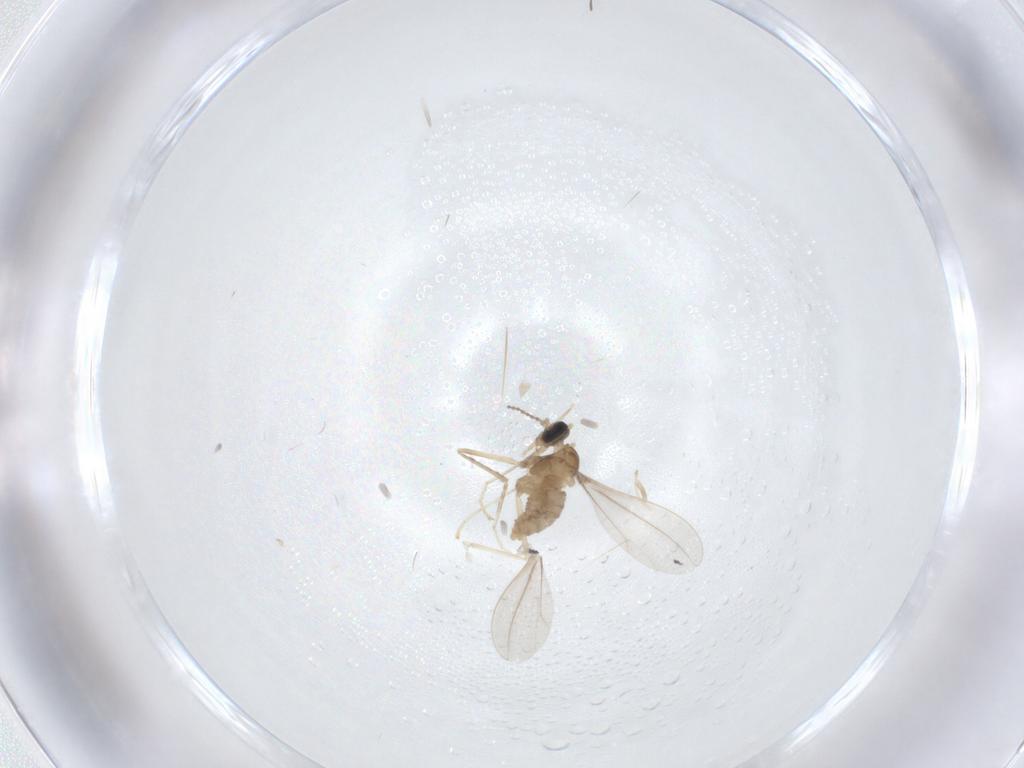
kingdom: Animalia
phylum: Arthropoda
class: Insecta
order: Diptera
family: Cecidomyiidae
